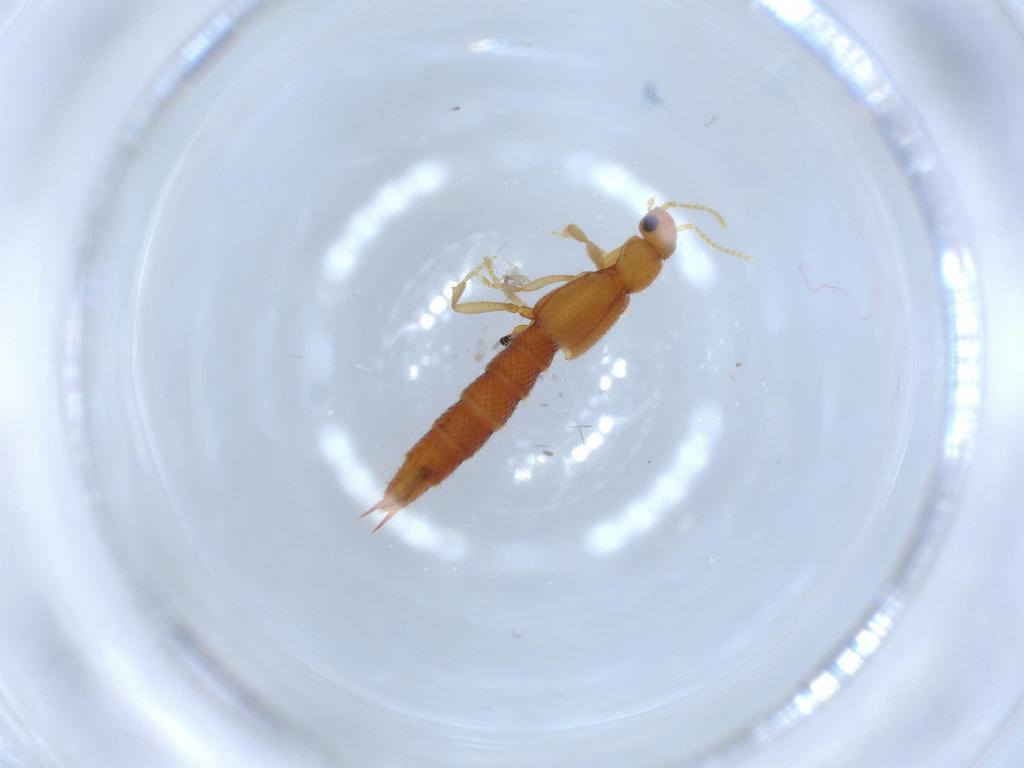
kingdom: Animalia
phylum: Arthropoda
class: Insecta
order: Coleoptera
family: Staphylinidae
